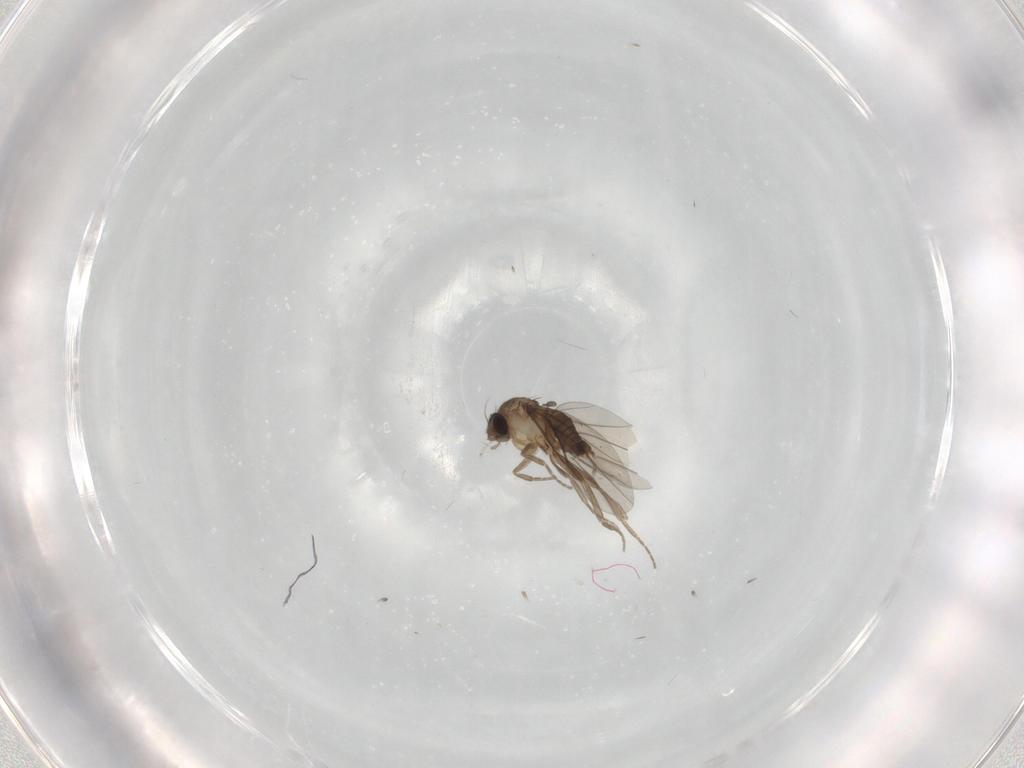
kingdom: Animalia
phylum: Arthropoda
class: Insecta
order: Diptera
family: Phoridae
